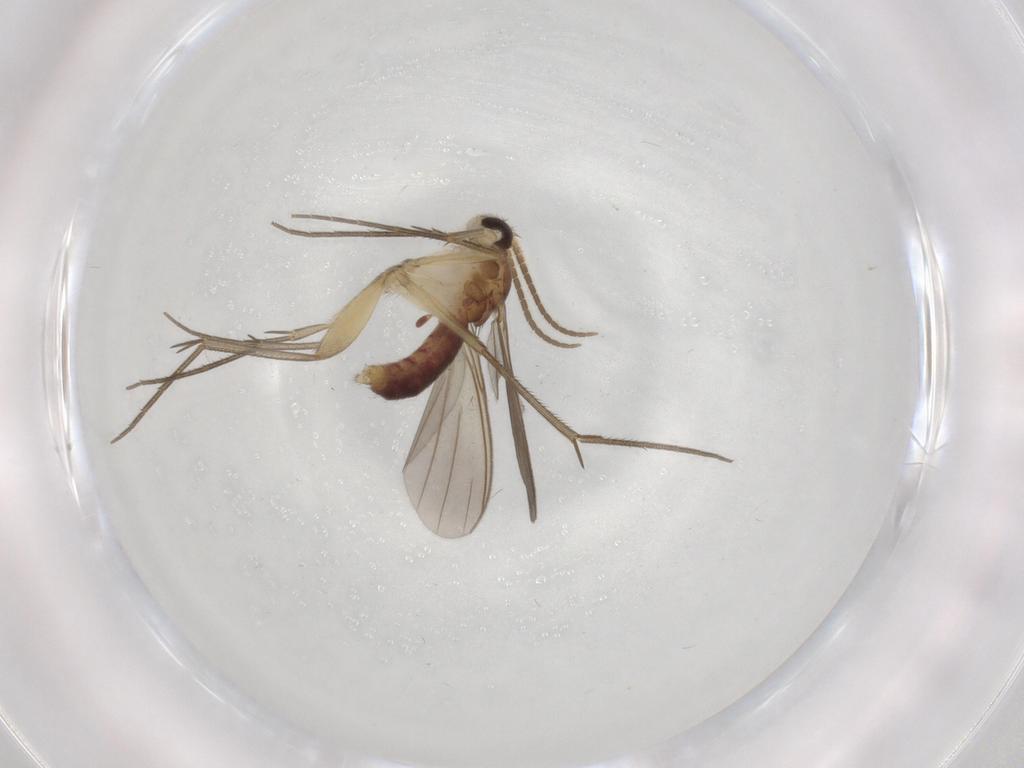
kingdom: Animalia
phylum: Arthropoda
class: Insecta
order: Diptera
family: Mycetophilidae
